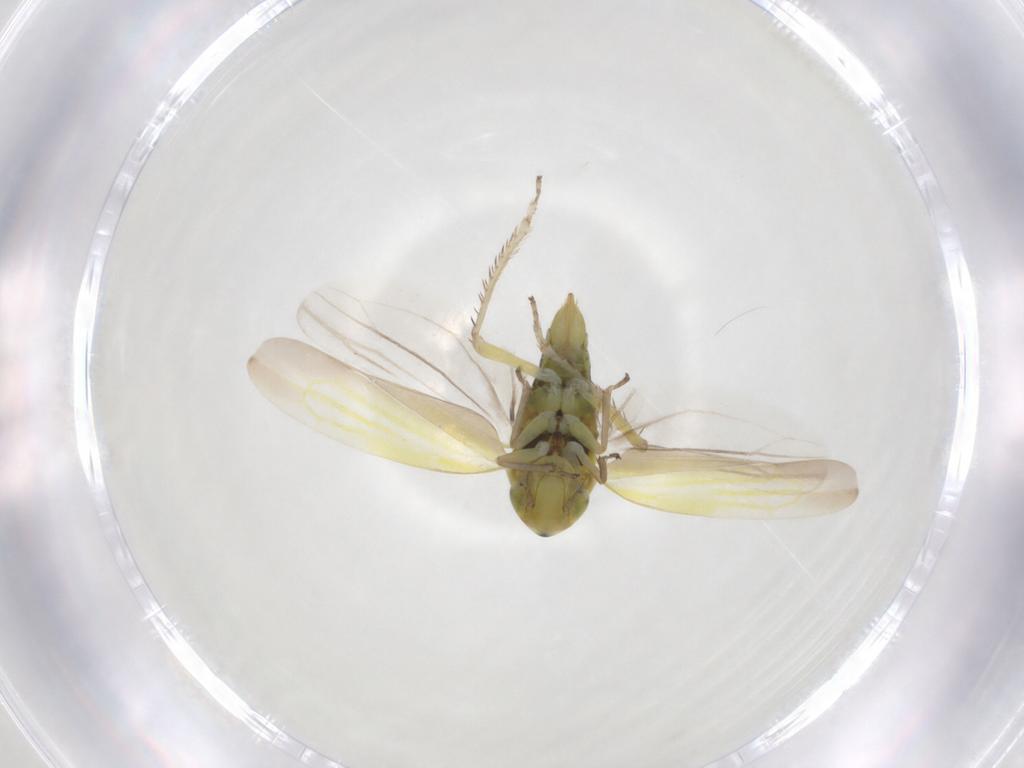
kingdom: Animalia
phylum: Arthropoda
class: Insecta
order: Hemiptera
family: Cicadellidae
